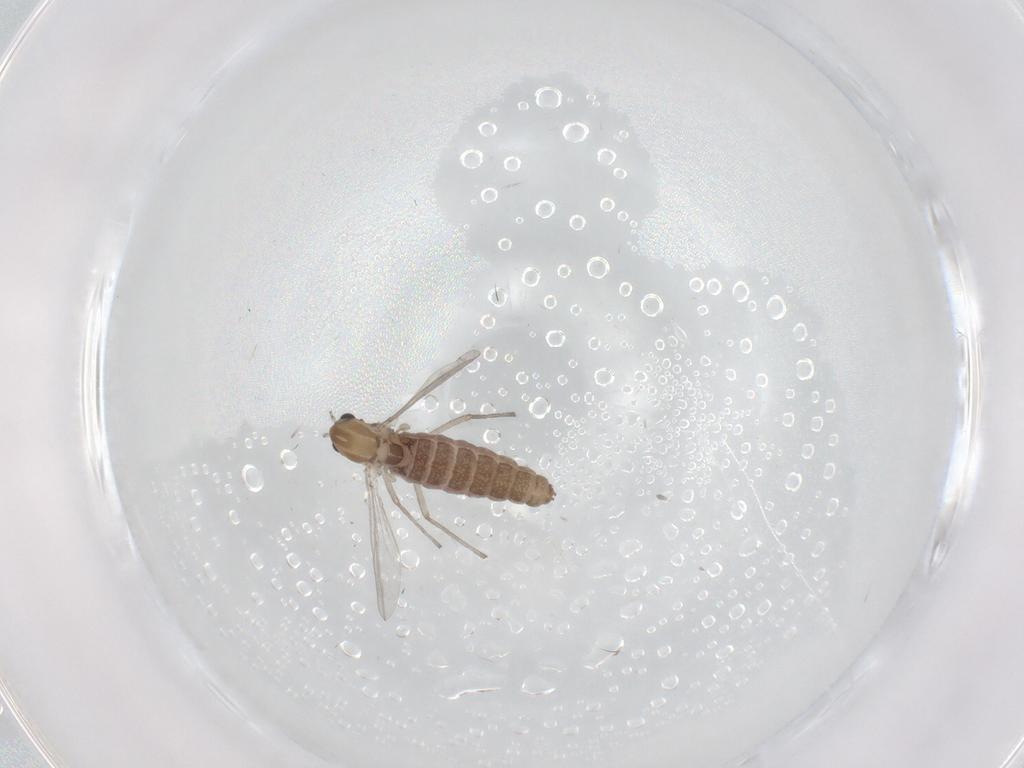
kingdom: Animalia
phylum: Arthropoda
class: Insecta
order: Diptera
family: Chironomidae
